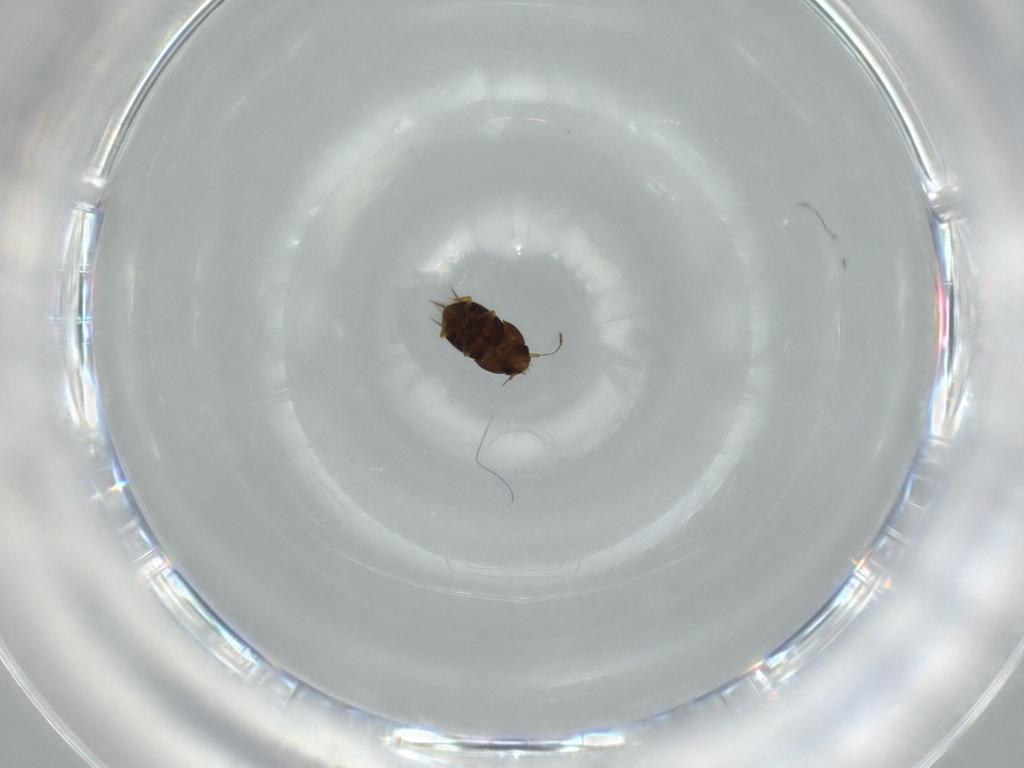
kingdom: Animalia
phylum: Arthropoda
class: Insecta
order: Coleoptera
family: Ptiliidae
